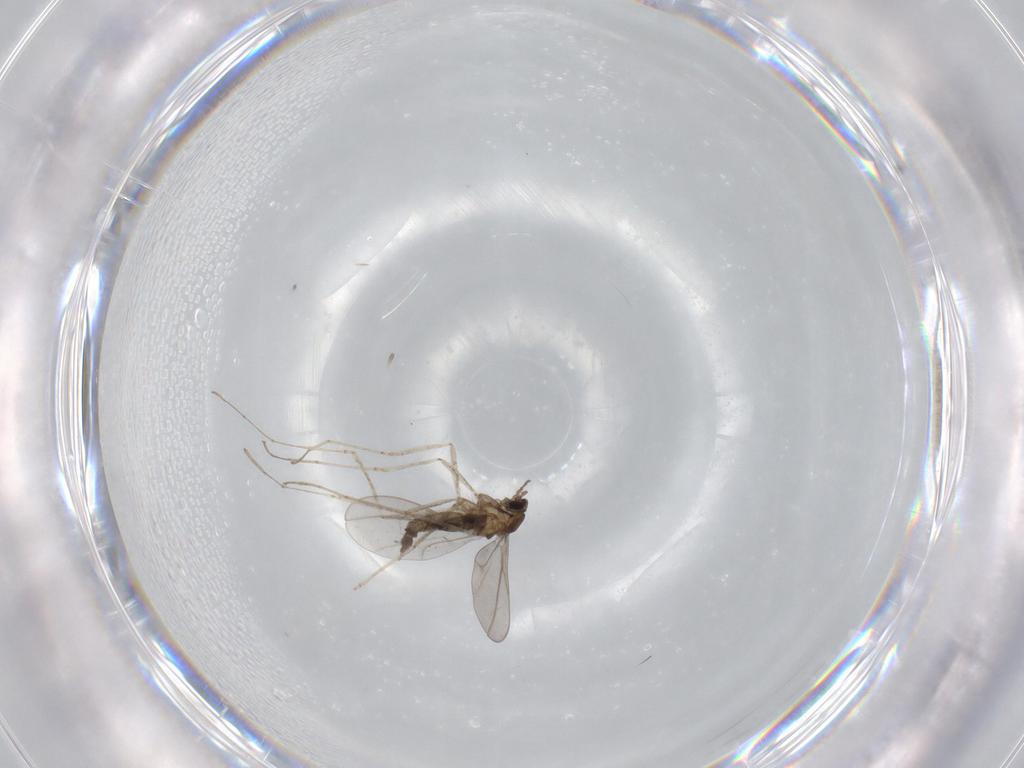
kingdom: Animalia
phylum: Arthropoda
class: Insecta
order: Diptera
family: Cecidomyiidae
